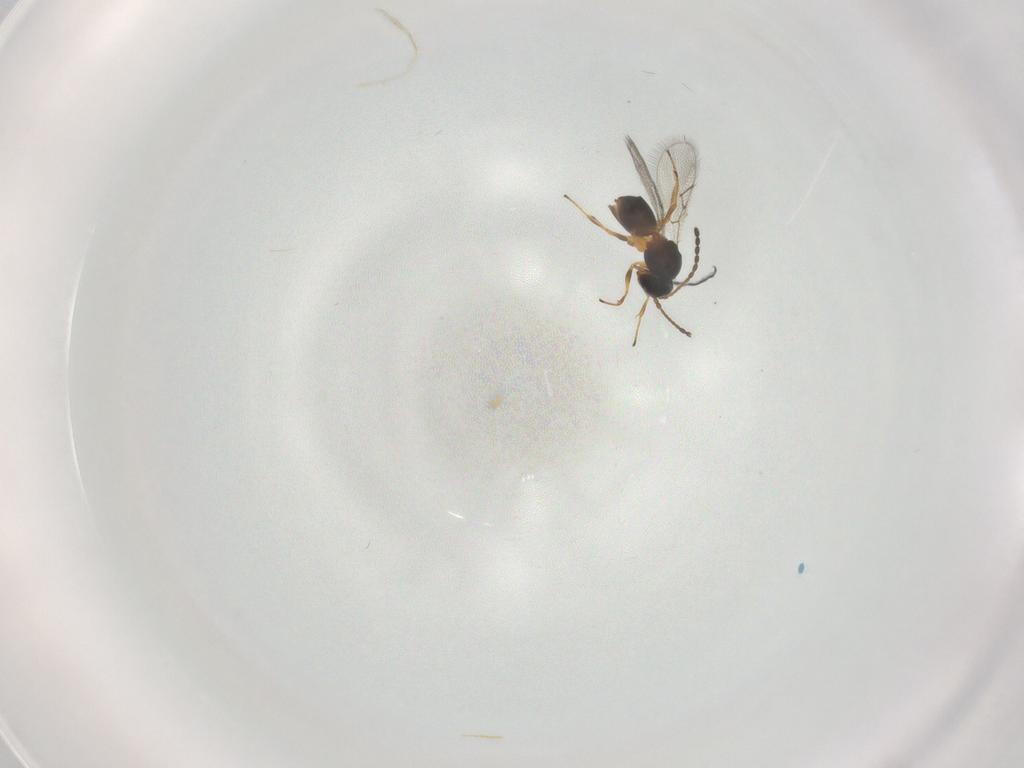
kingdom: Animalia
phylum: Arthropoda
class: Insecta
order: Hymenoptera
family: Figitidae
